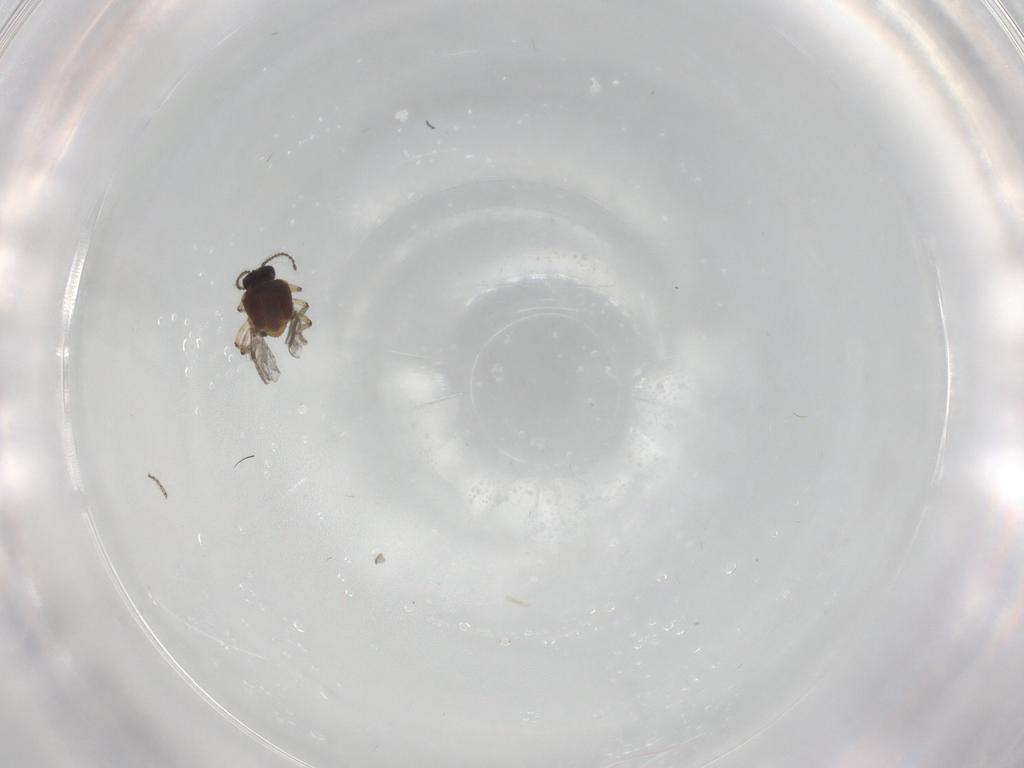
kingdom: Animalia
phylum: Arthropoda
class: Insecta
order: Diptera
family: Ceratopogonidae
